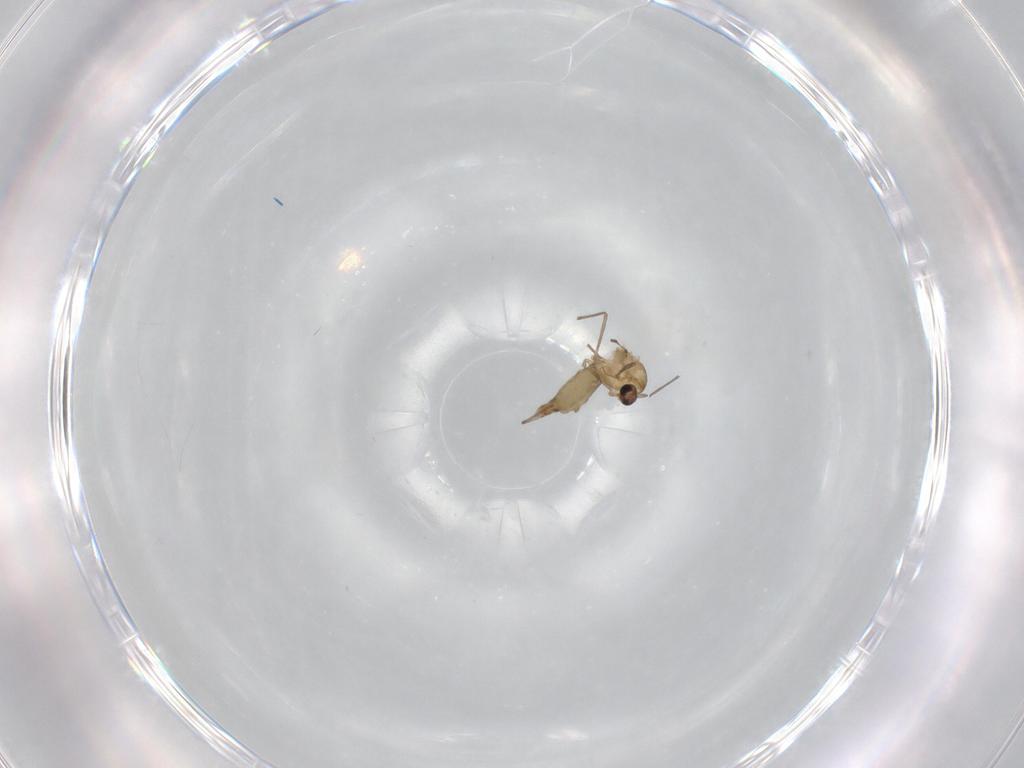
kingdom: Animalia
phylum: Arthropoda
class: Insecta
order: Diptera
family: Chironomidae
